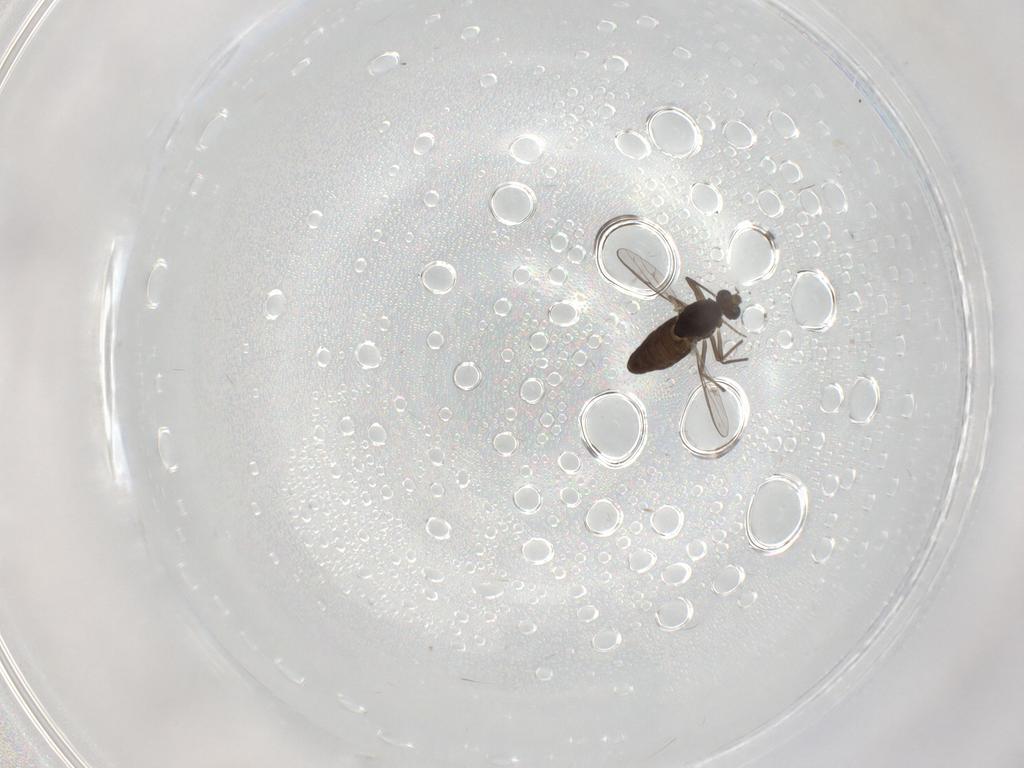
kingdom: Animalia
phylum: Arthropoda
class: Insecta
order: Diptera
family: Chironomidae
